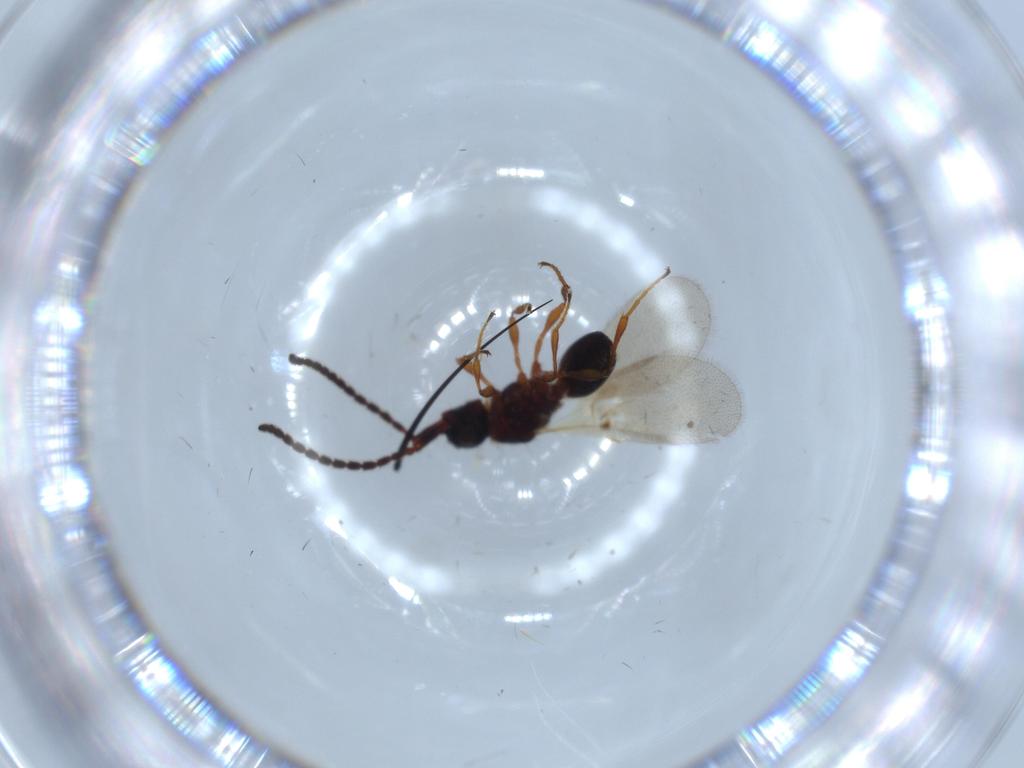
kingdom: Animalia
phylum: Arthropoda
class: Insecta
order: Hymenoptera
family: Diapriidae
